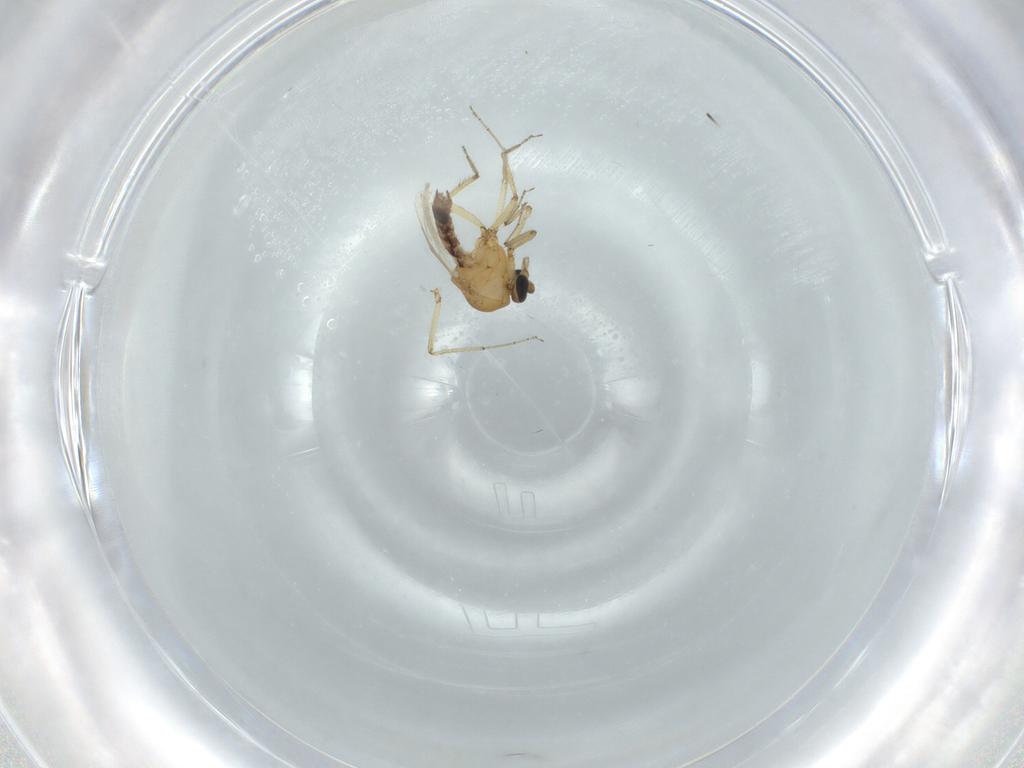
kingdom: Animalia
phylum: Arthropoda
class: Insecta
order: Diptera
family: Ceratopogonidae
